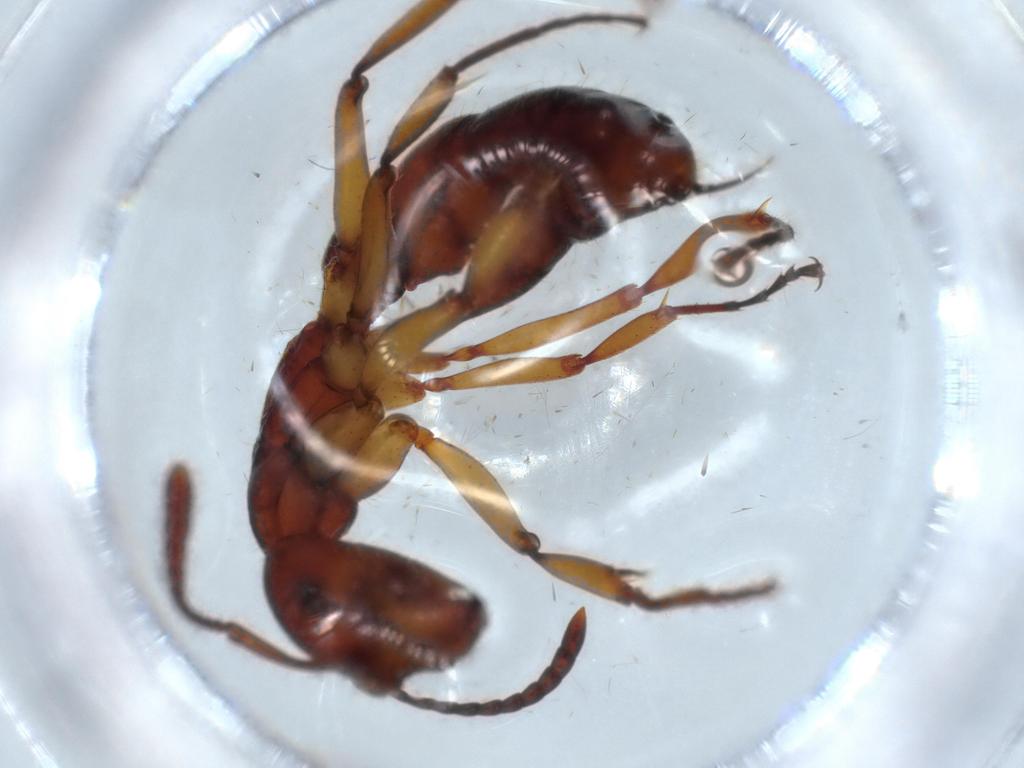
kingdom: Animalia
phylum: Arthropoda
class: Insecta
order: Hymenoptera
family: Formicidae
